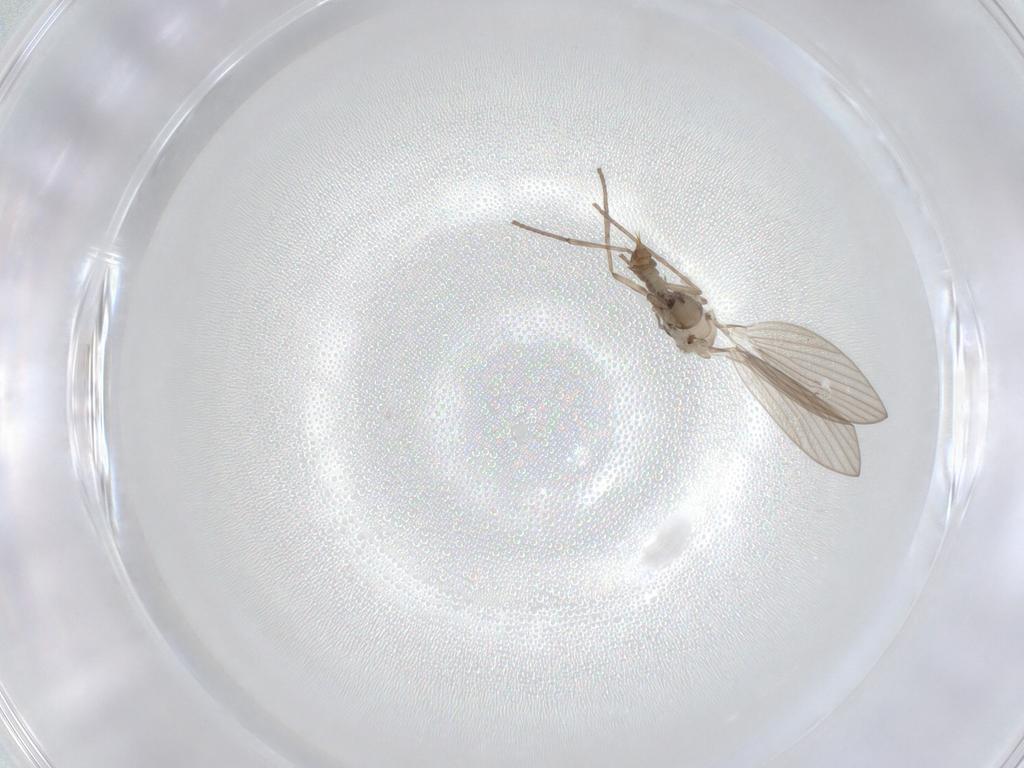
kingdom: Animalia
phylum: Arthropoda
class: Insecta
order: Diptera
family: Psychodidae
